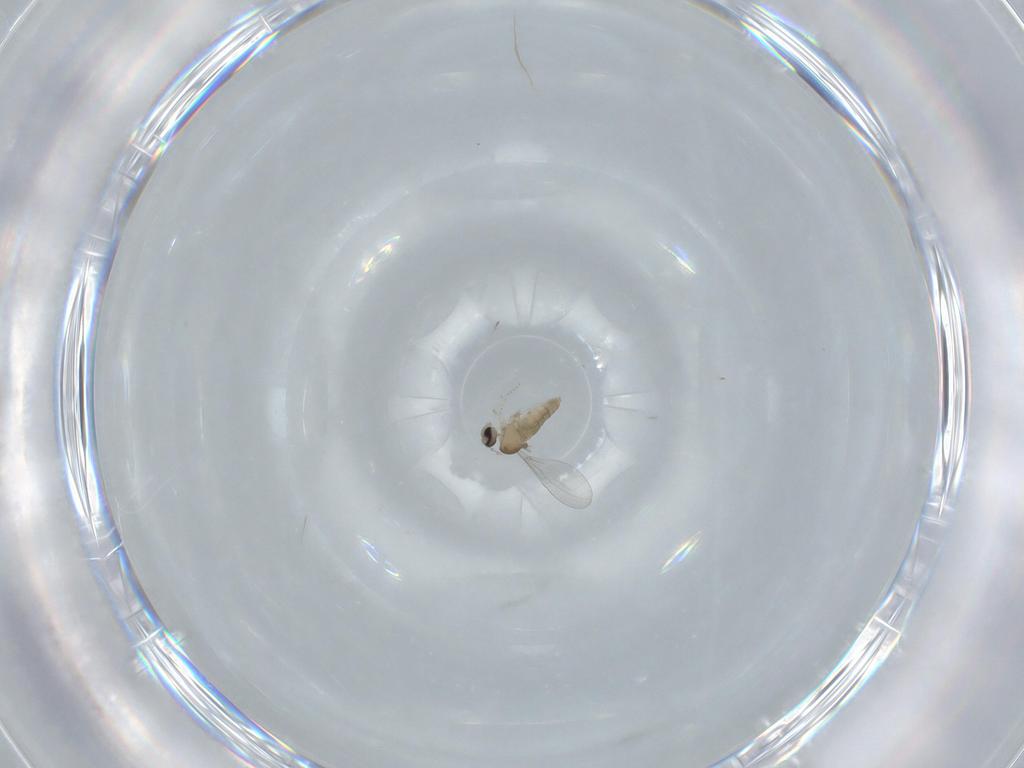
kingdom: Animalia
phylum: Arthropoda
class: Insecta
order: Diptera
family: Cecidomyiidae
